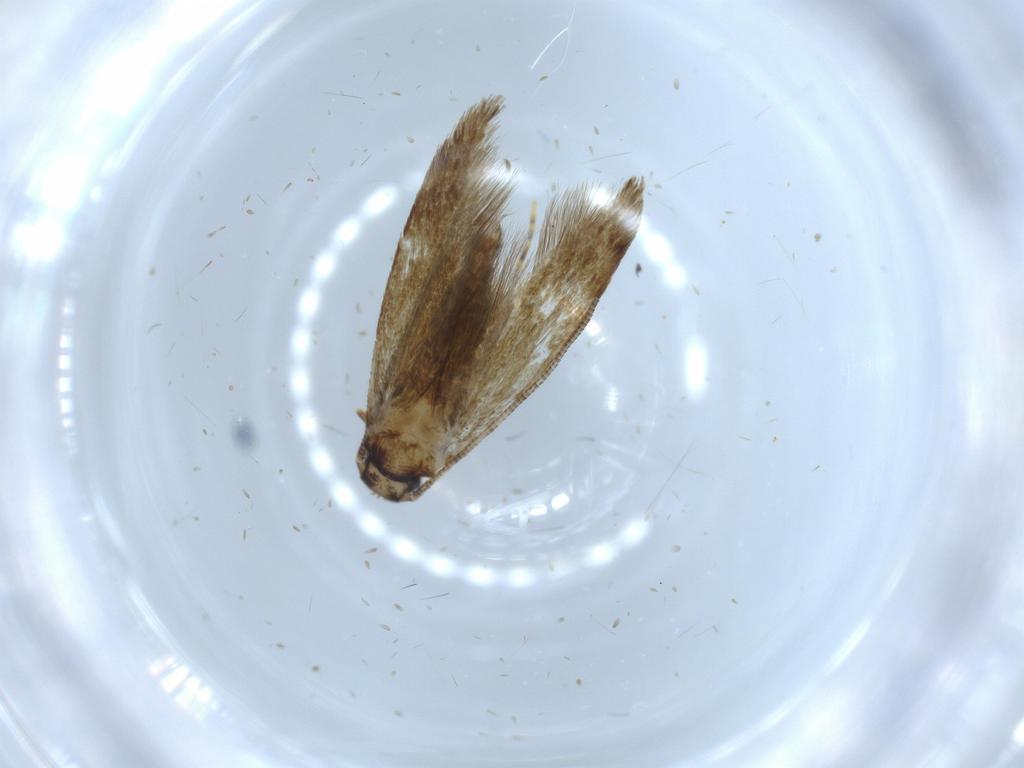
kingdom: Animalia
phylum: Arthropoda
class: Insecta
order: Lepidoptera
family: Tineidae
